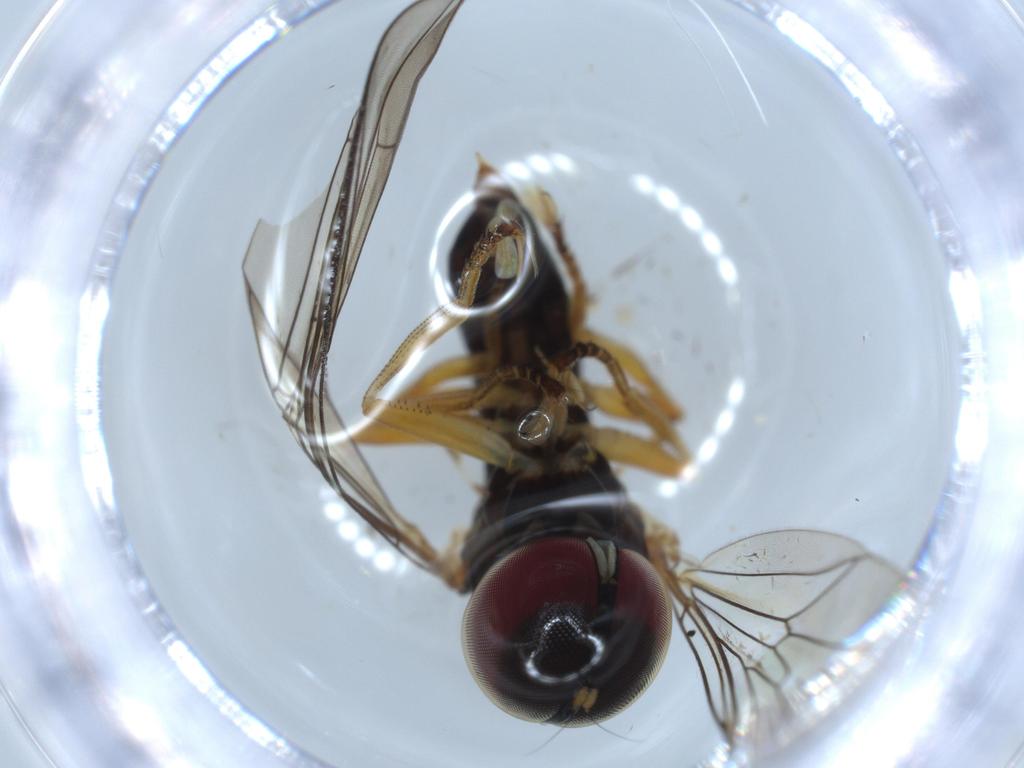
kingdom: Animalia
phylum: Arthropoda
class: Insecta
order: Diptera
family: Pipunculidae
